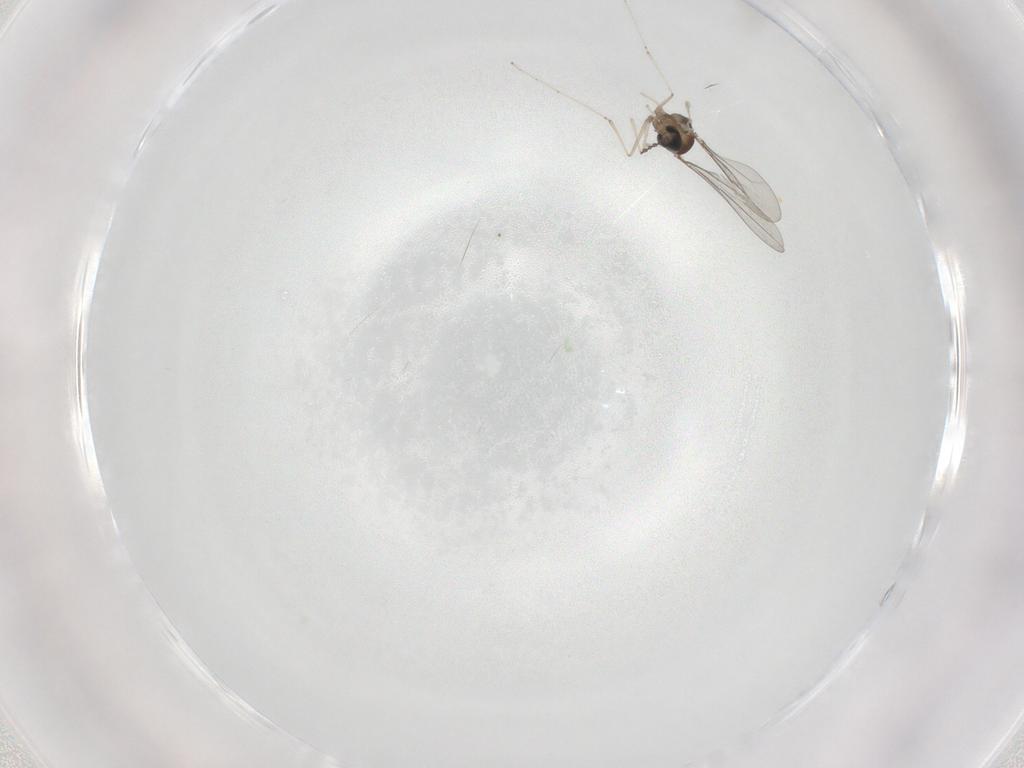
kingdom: Animalia
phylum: Arthropoda
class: Insecta
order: Diptera
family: Cecidomyiidae
